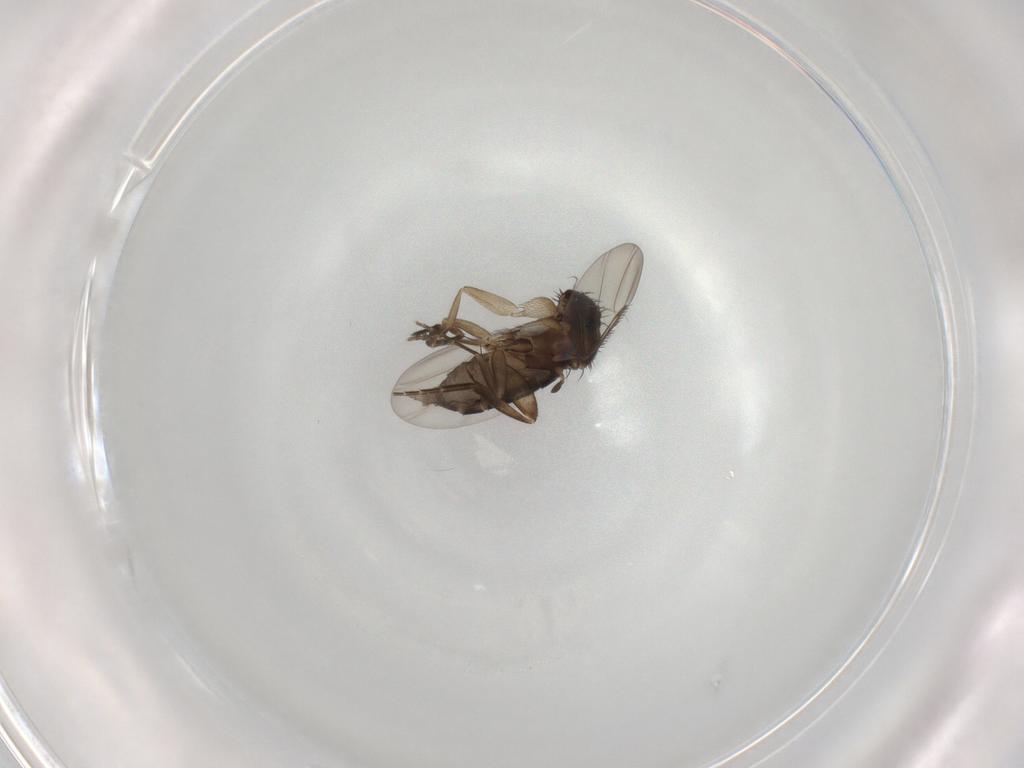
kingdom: Animalia
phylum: Arthropoda
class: Insecta
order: Diptera
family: Phoridae
